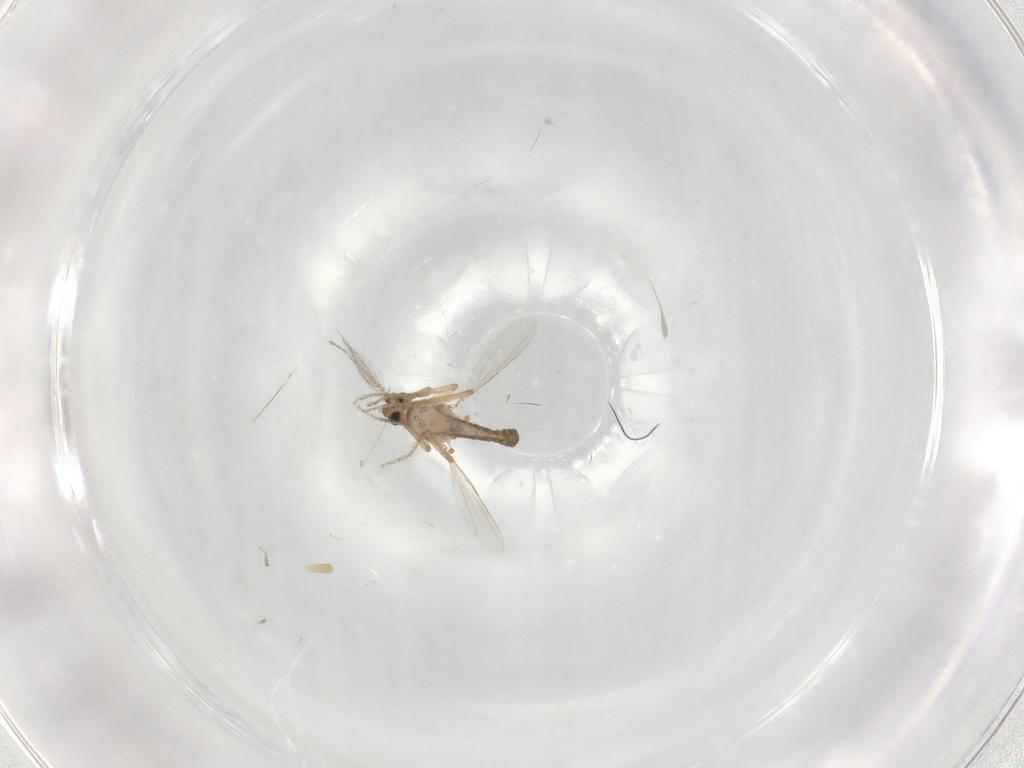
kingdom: Animalia
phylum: Arthropoda
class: Insecta
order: Diptera
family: Ceratopogonidae
